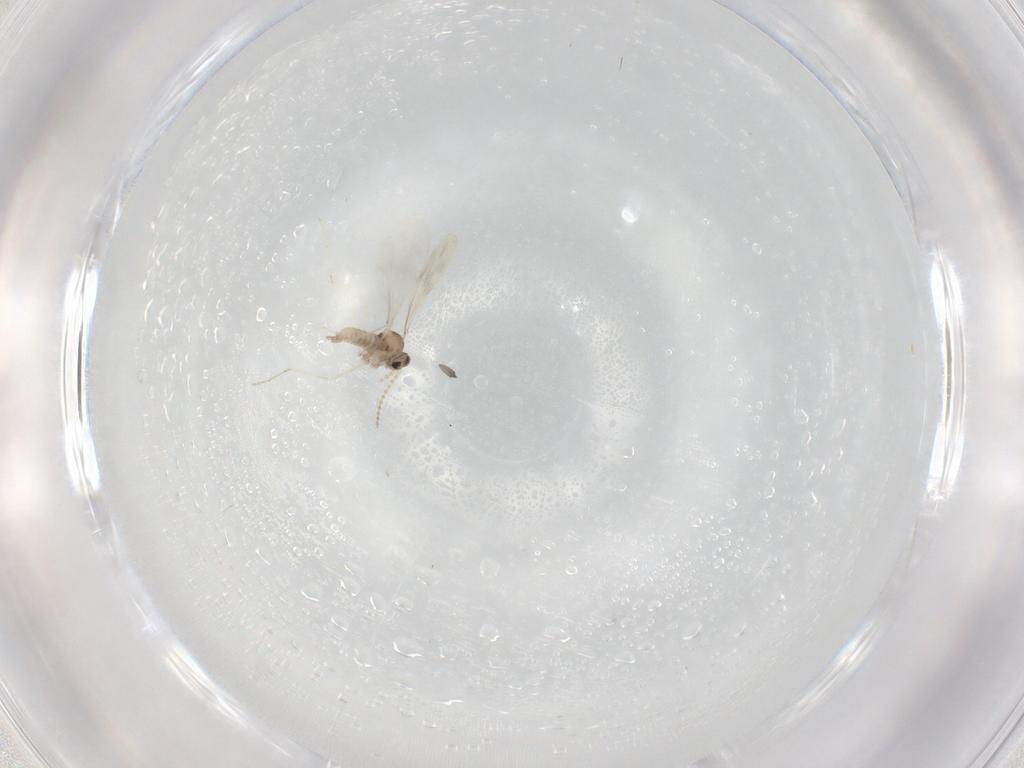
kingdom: Animalia
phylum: Arthropoda
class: Insecta
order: Diptera
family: Cecidomyiidae
